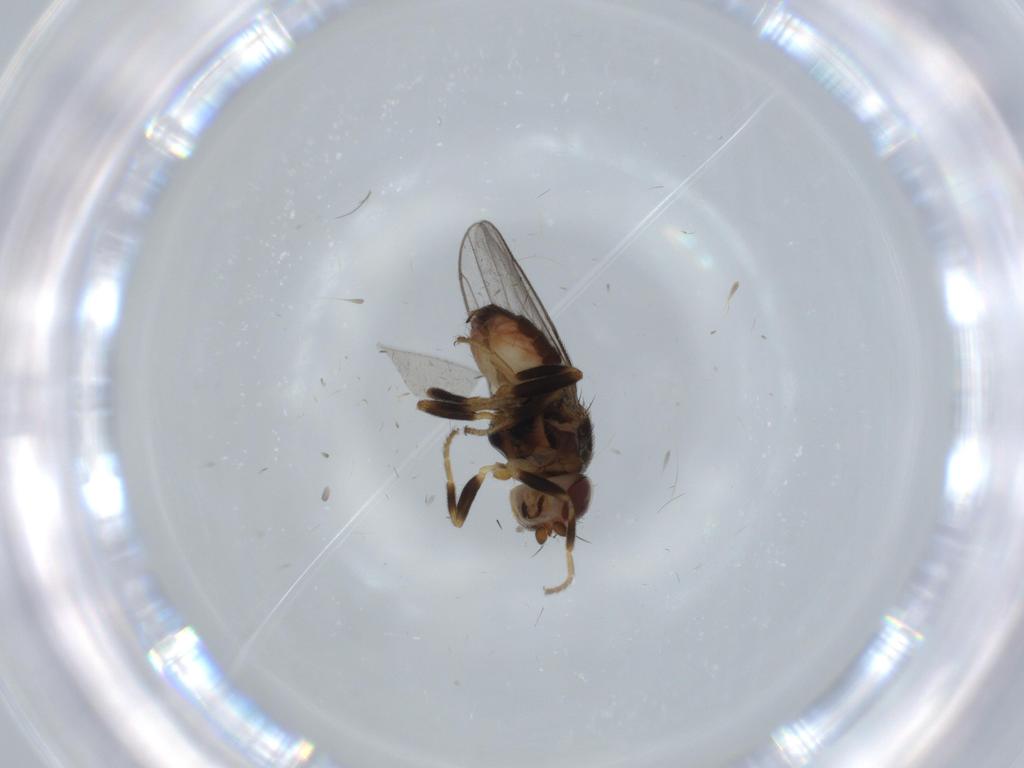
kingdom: Animalia
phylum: Arthropoda
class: Insecta
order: Diptera
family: Chloropidae
